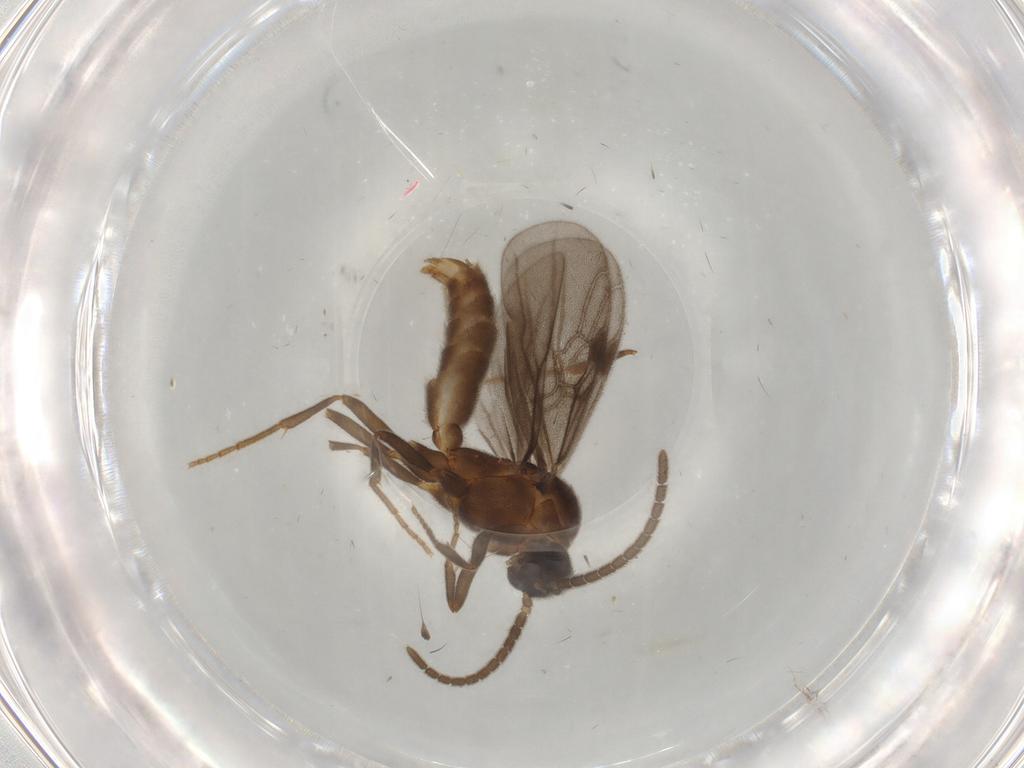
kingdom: Animalia
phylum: Arthropoda
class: Insecta
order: Hymenoptera
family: Formicidae
